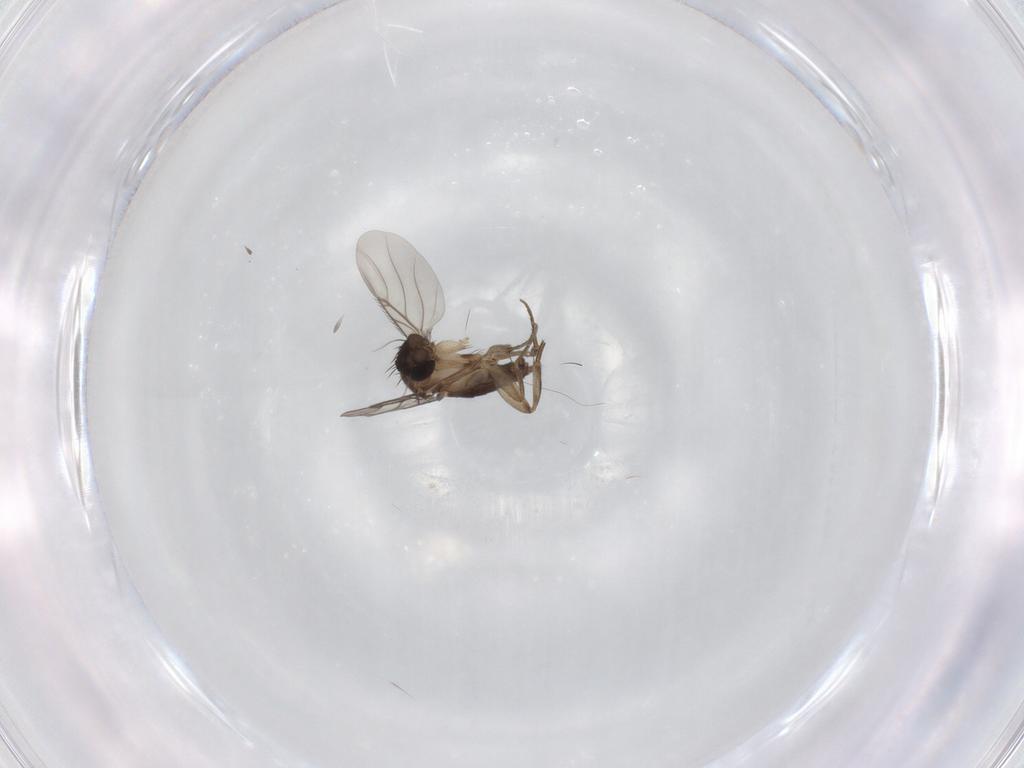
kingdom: Animalia
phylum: Arthropoda
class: Insecta
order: Diptera
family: Phoridae
